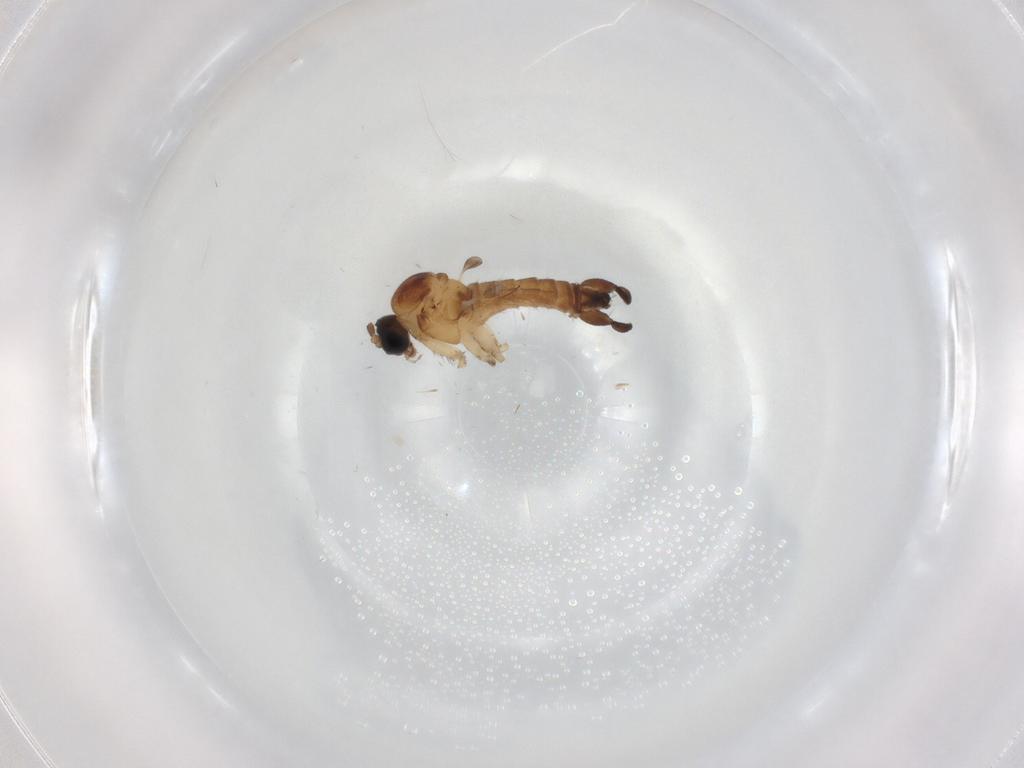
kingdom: Animalia
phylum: Arthropoda
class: Insecta
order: Diptera
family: Sciaridae
